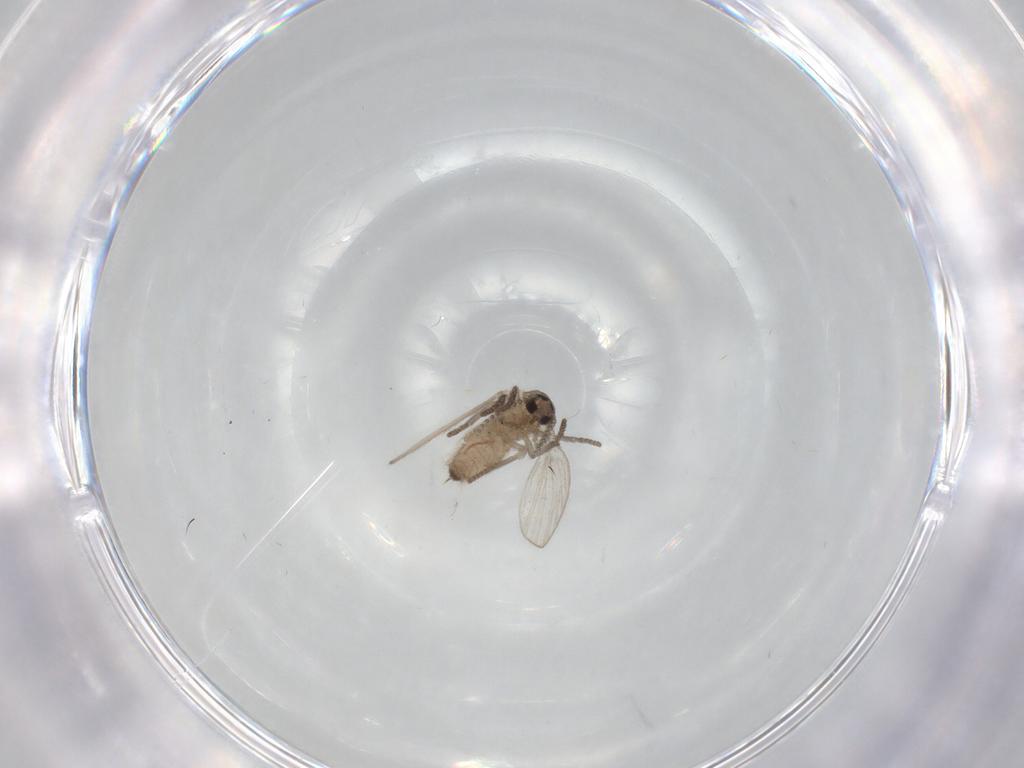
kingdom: Animalia
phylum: Arthropoda
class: Insecta
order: Diptera
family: Psychodidae
